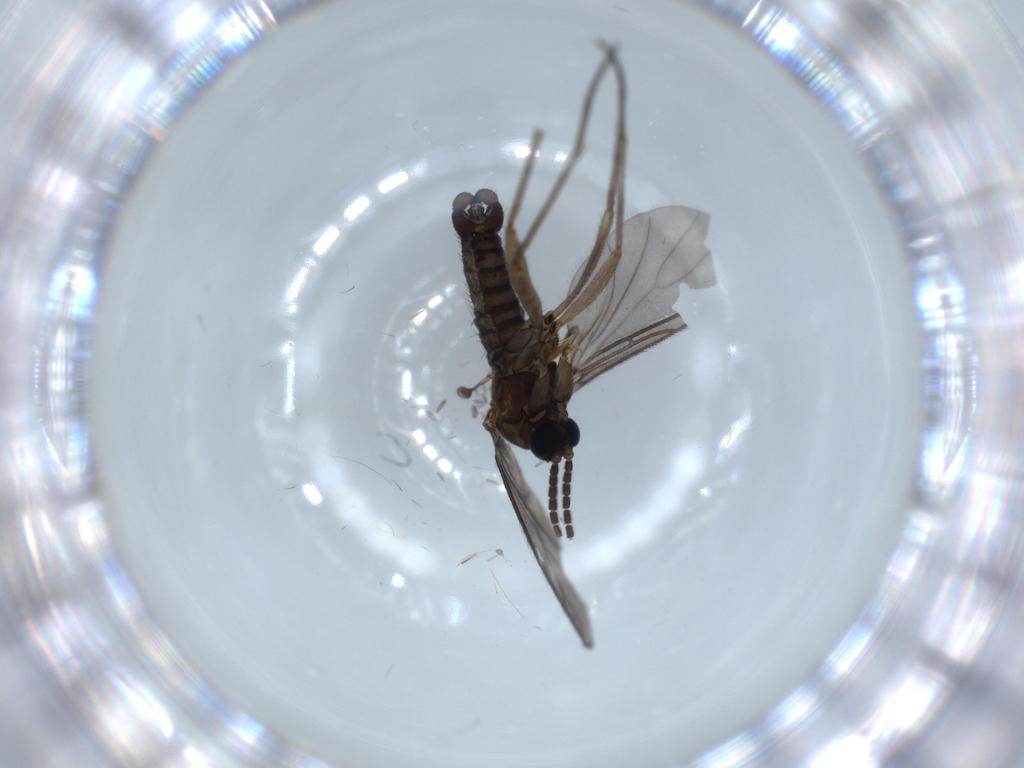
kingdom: Animalia
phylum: Arthropoda
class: Insecta
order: Diptera
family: Sciaridae
